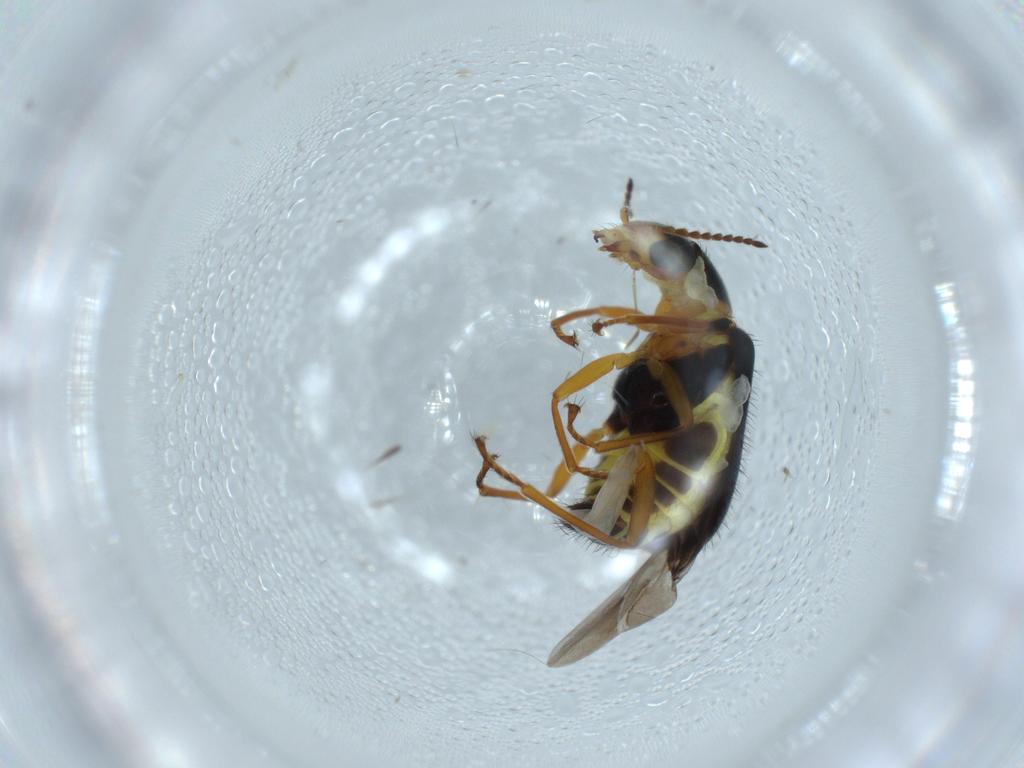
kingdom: Animalia
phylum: Arthropoda
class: Insecta
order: Coleoptera
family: Melyridae
